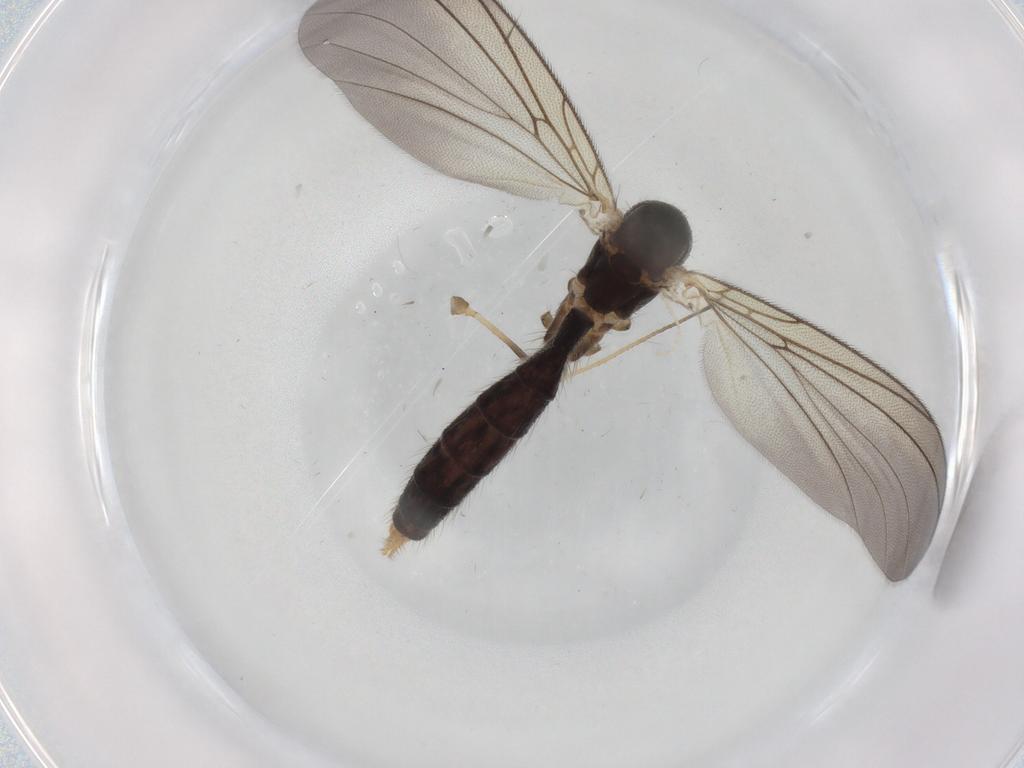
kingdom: Animalia
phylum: Arthropoda
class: Insecta
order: Diptera
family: Mycetophilidae
